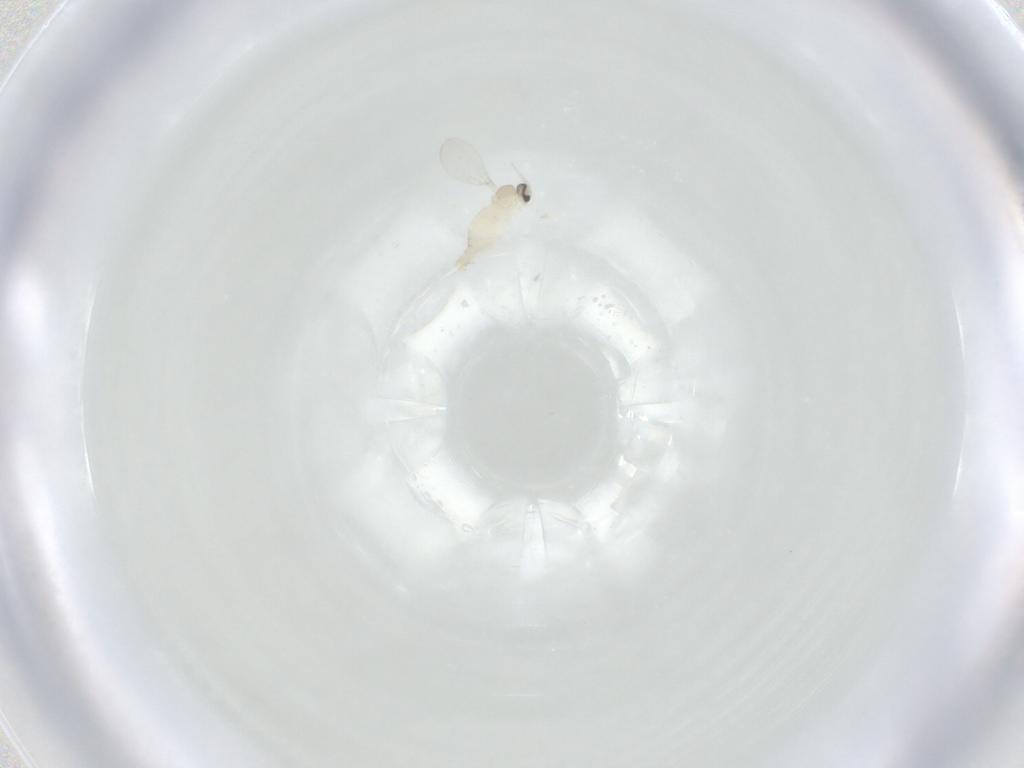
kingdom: Animalia
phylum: Arthropoda
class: Insecta
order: Diptera
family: Cecidomyiidae
